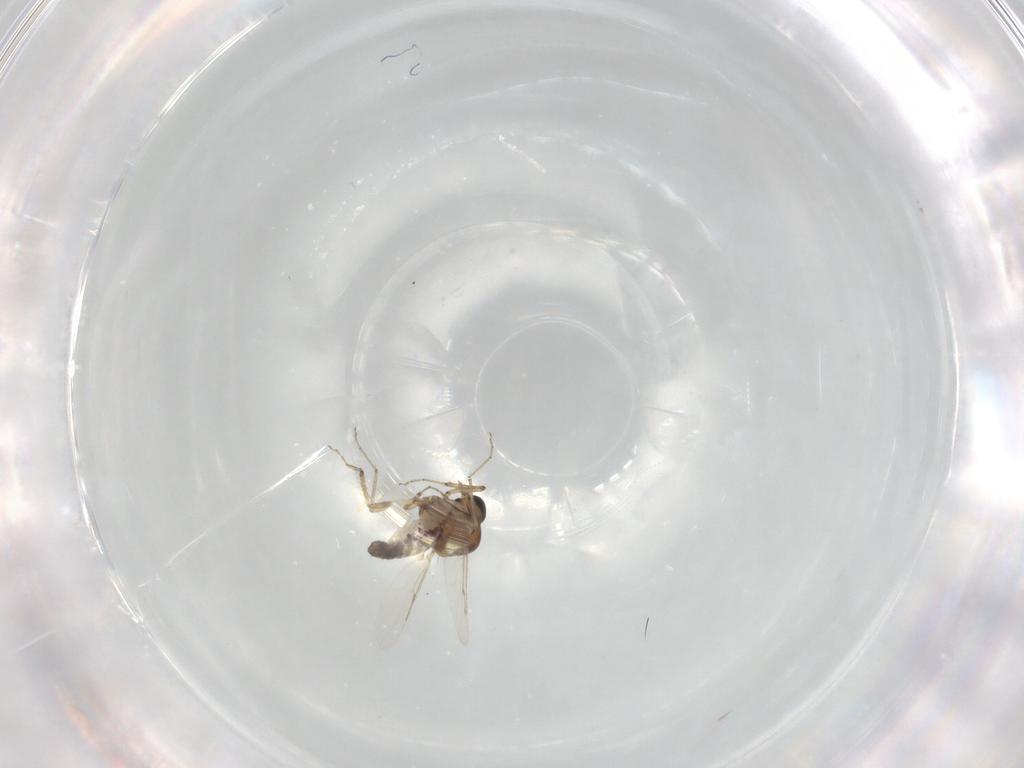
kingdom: Animalia
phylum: Arthropoda
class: Insecta
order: Diptera
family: Ceratopogonidae
